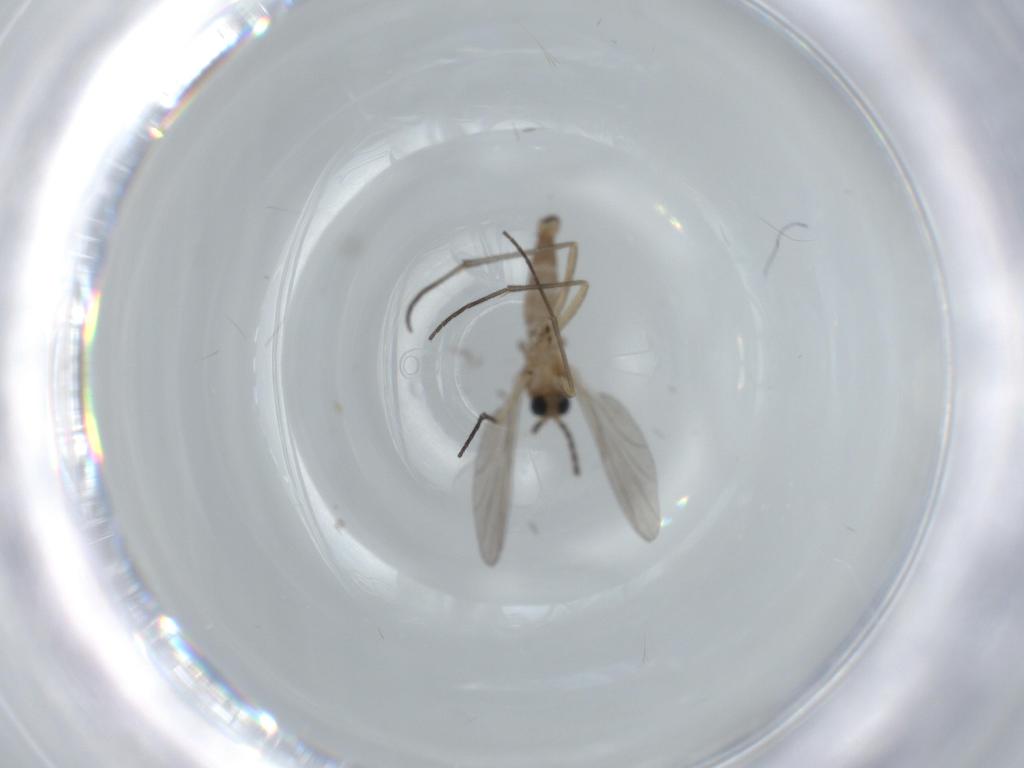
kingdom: Animalia
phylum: Arthropoda
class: Insecta
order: Diptera
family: Sciaridae
